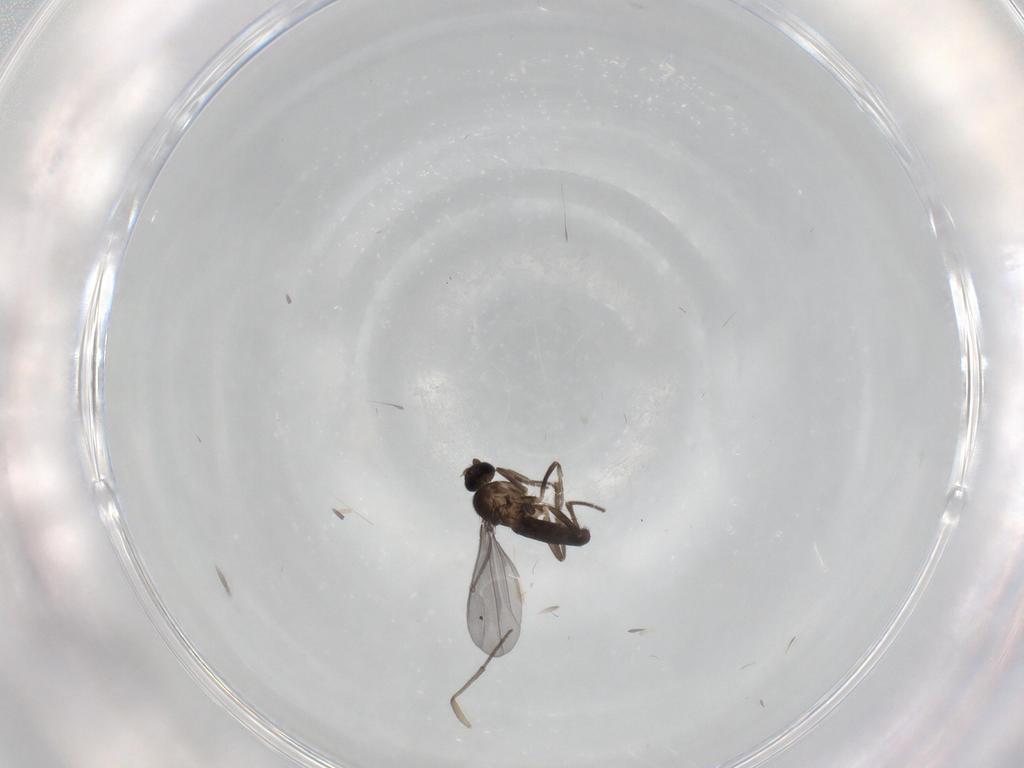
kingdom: Animalia
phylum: Arthropoda
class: Insecta
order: Diptera
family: Phoridae
